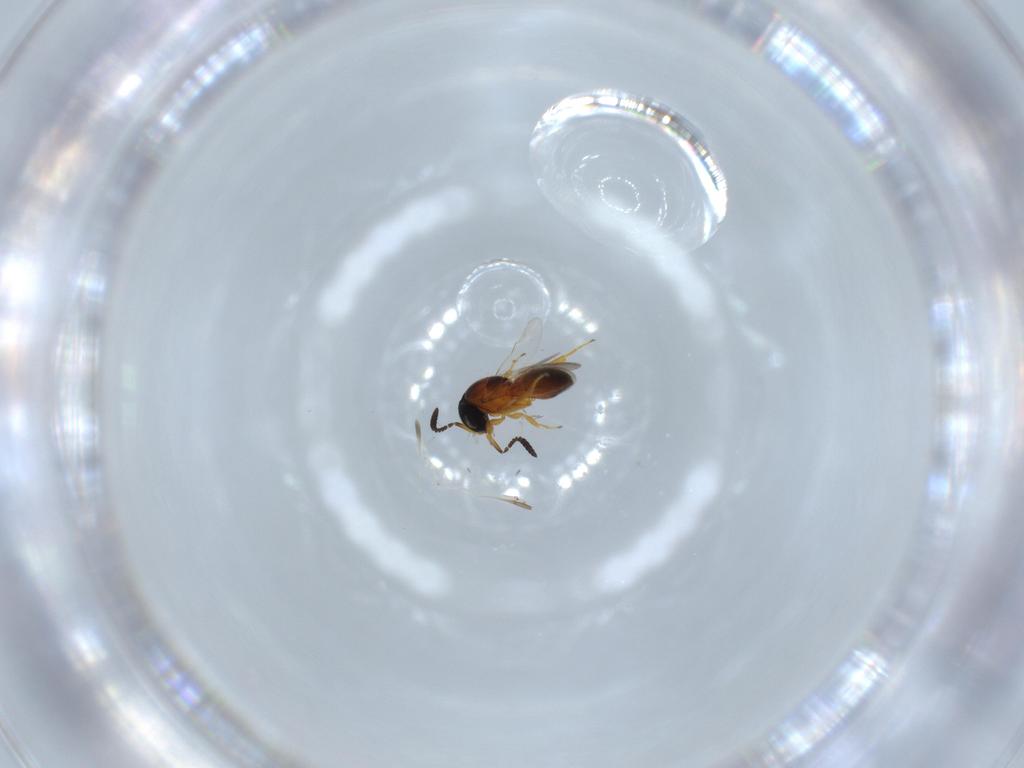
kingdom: Animalia
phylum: Arthropoda
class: Insecta
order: Hymenoptera
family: Scelionidae
